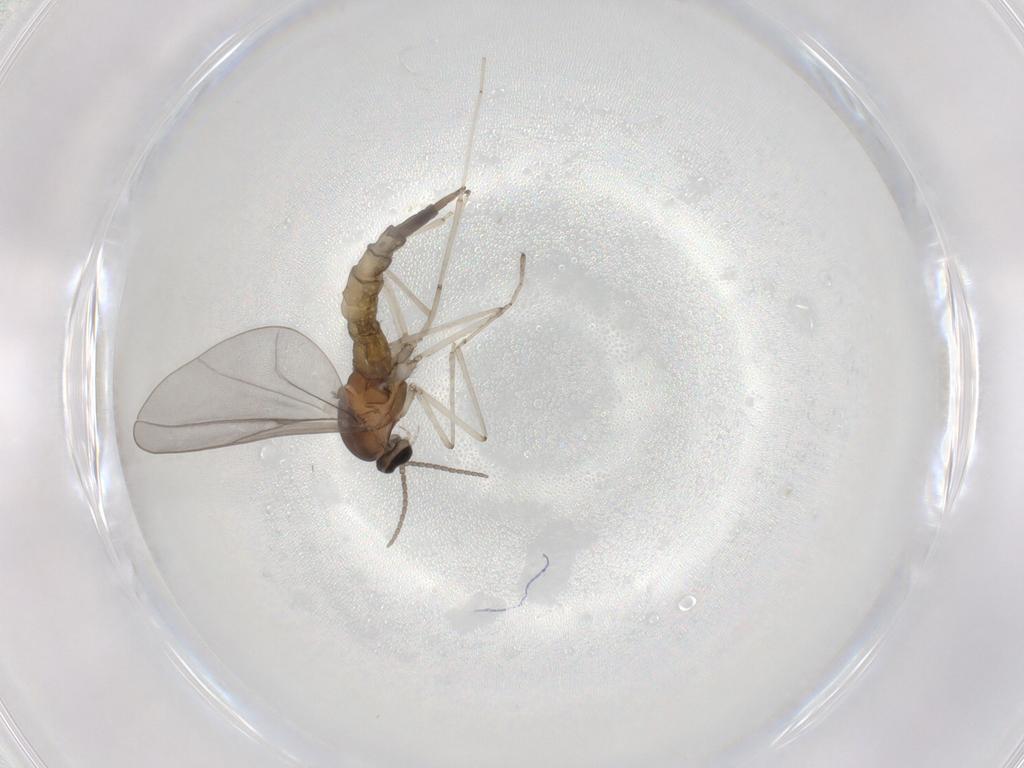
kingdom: Animalia
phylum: Arthropoda
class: Insecta
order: Diptera
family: Cecidomyiidae
